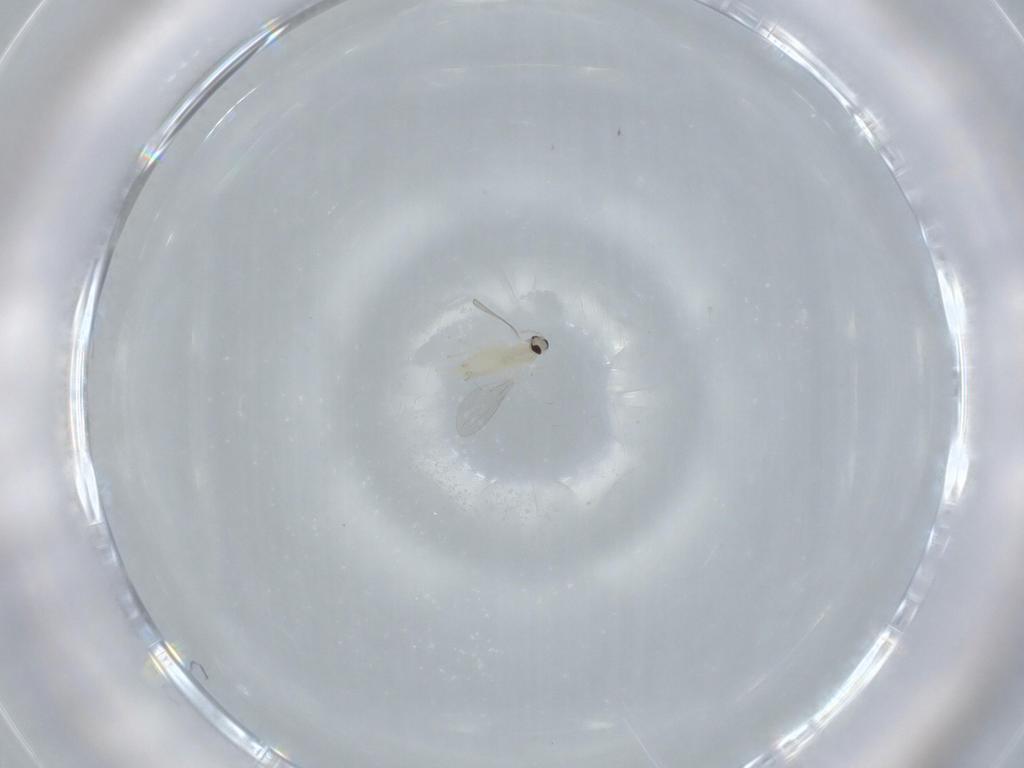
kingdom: Animalia
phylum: Arthropoda
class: Insecta
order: Diptera
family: Cecidomyiidae
